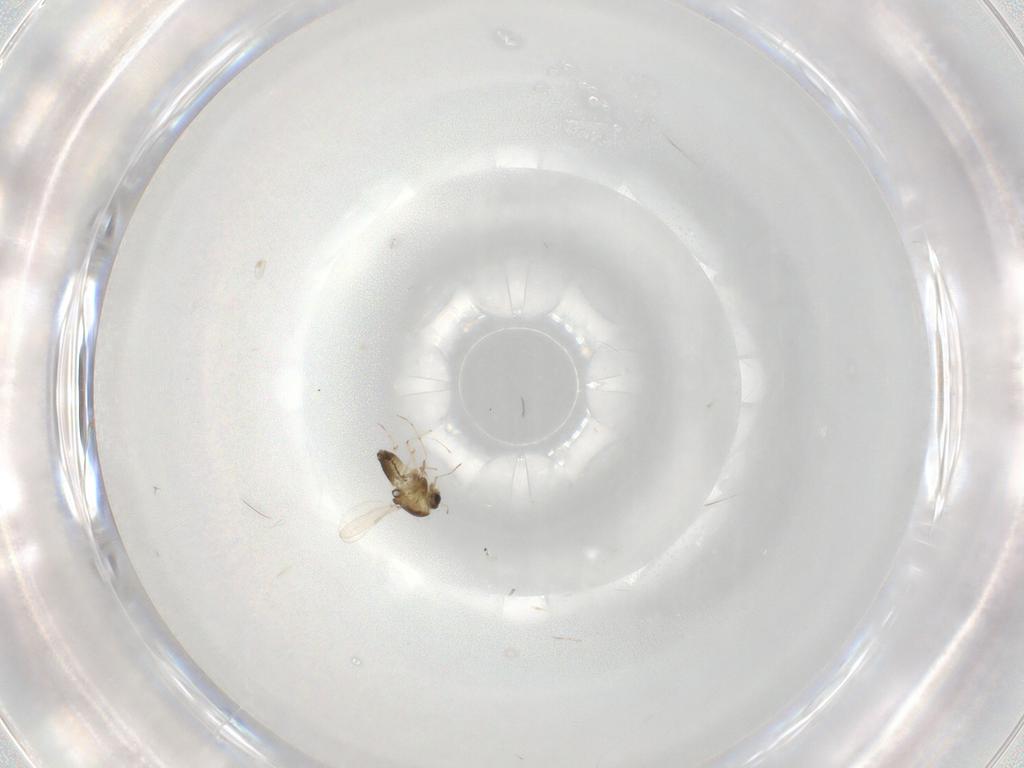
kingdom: Animalia
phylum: Arthropoda
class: Insecta
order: Diptera
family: Chironomidae
